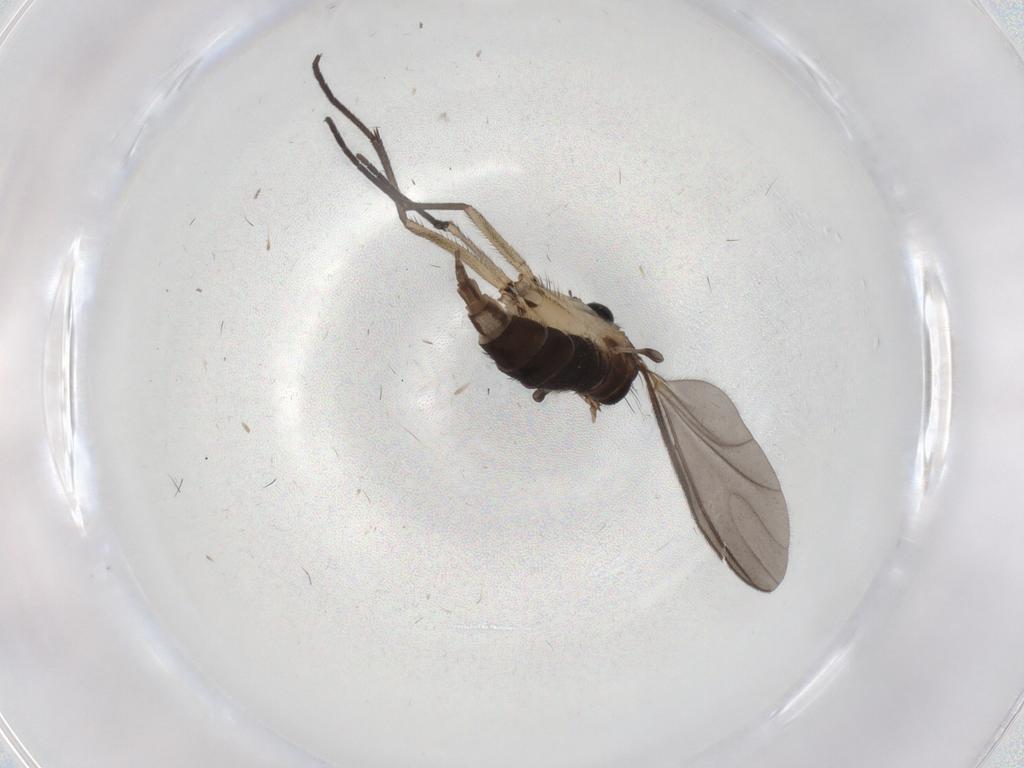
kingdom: Animalia
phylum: Arthropoda
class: Insecta
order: Diptera
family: Sciaridae
